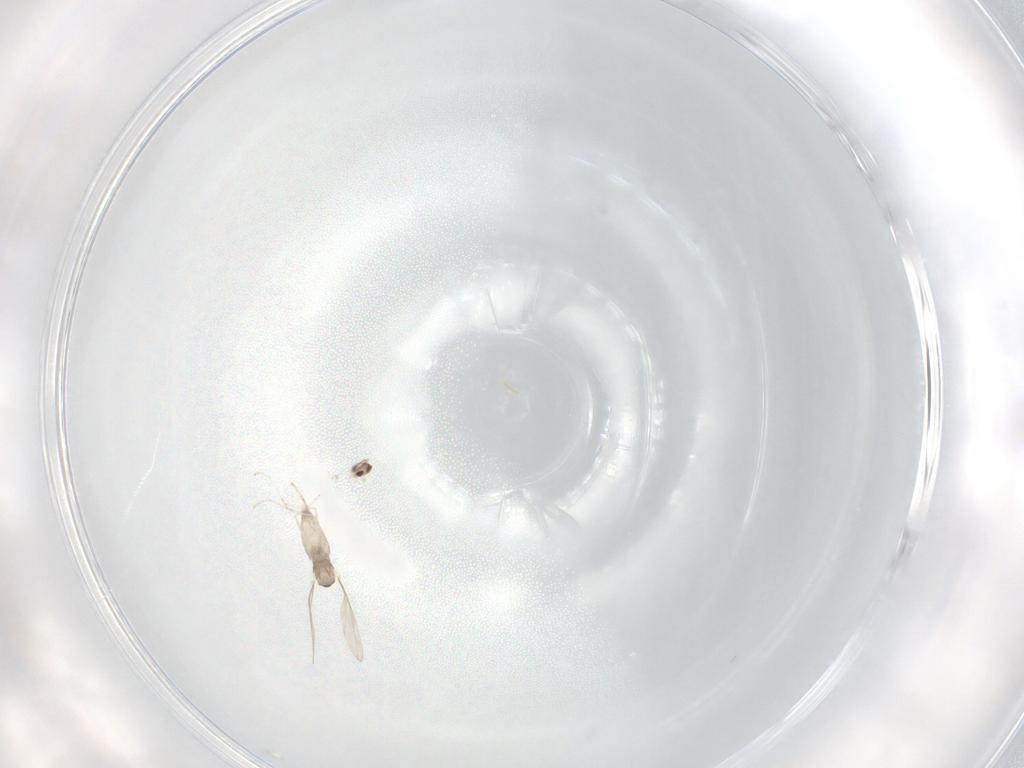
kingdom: Animalia
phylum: Arthropoda
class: Insecta
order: Diptera
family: Cecidomyiidae
